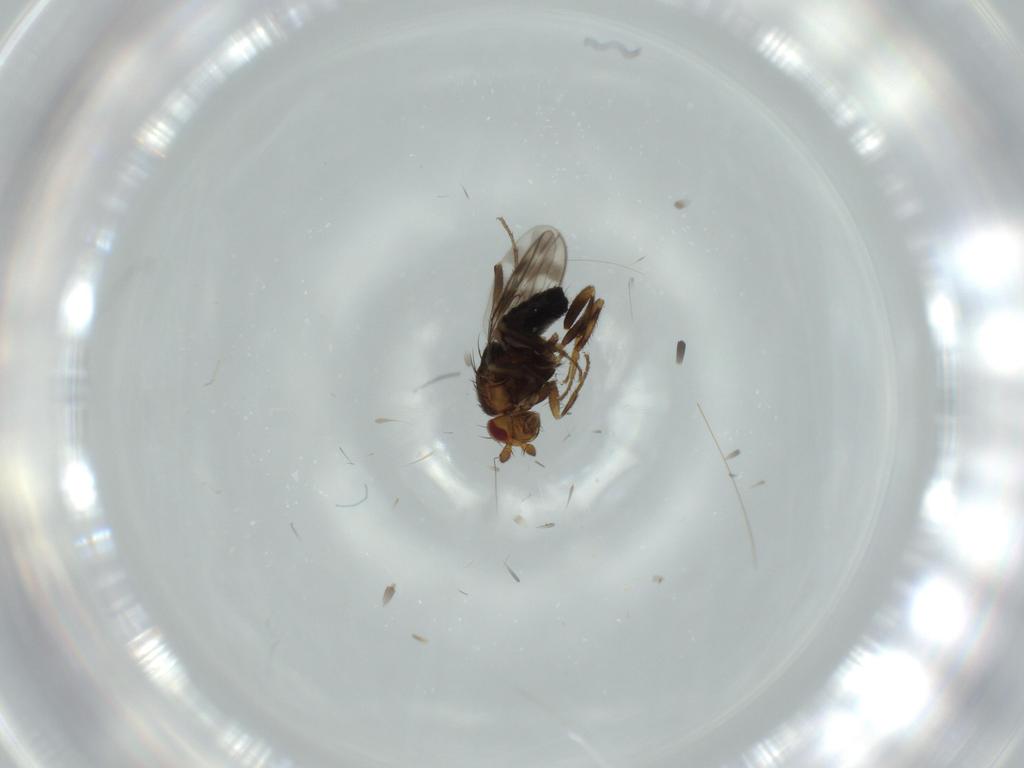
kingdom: Animalia
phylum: Arthropoda
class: Insecta
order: Diptera
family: Sphaeroceridae
